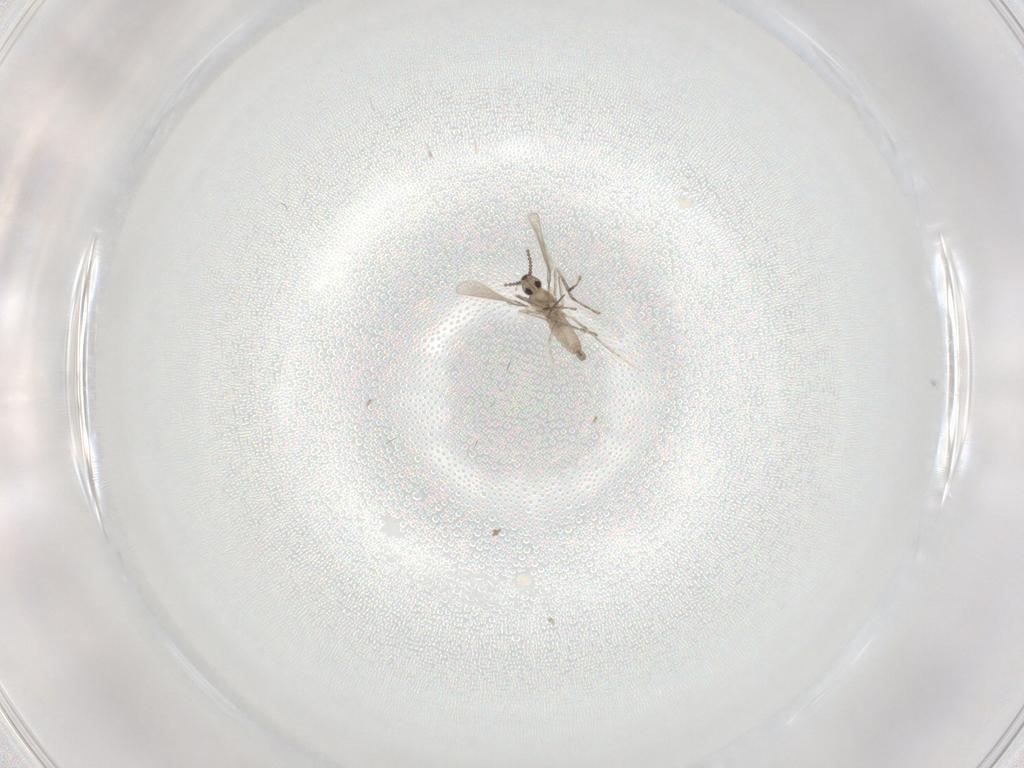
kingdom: Animalia
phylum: Arthropoda
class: Insecta
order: Diptera
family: Cecidomyiidae
